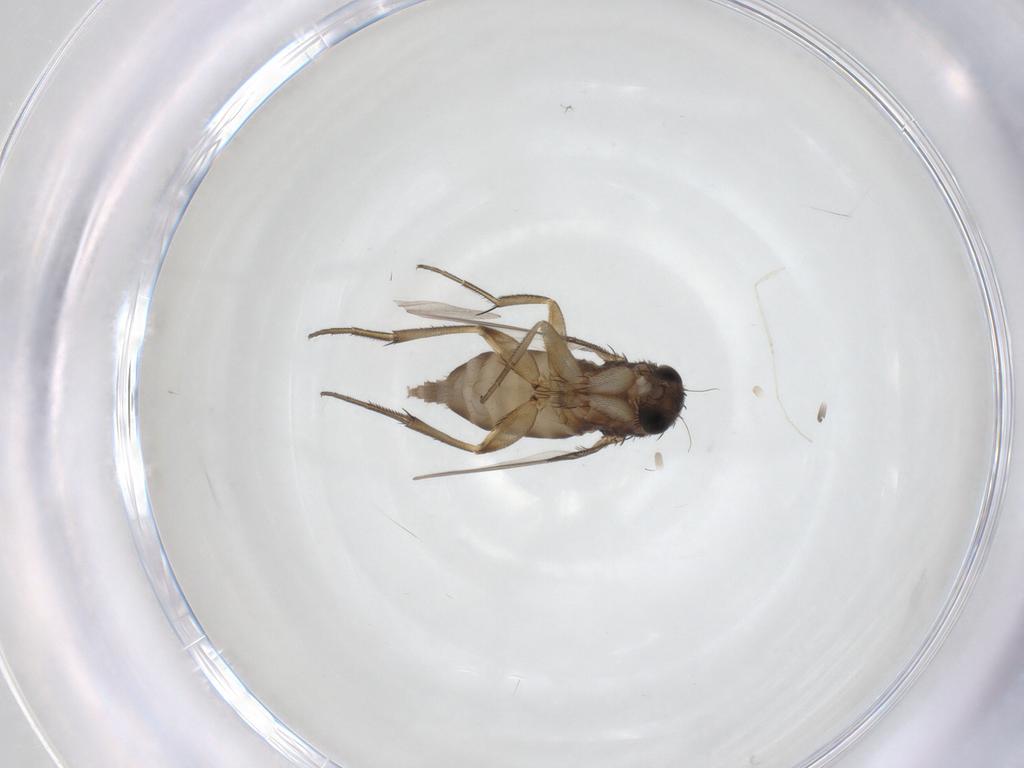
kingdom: Animalia
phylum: Arthropoda
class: Insecta
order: Diptera
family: Phoridae
